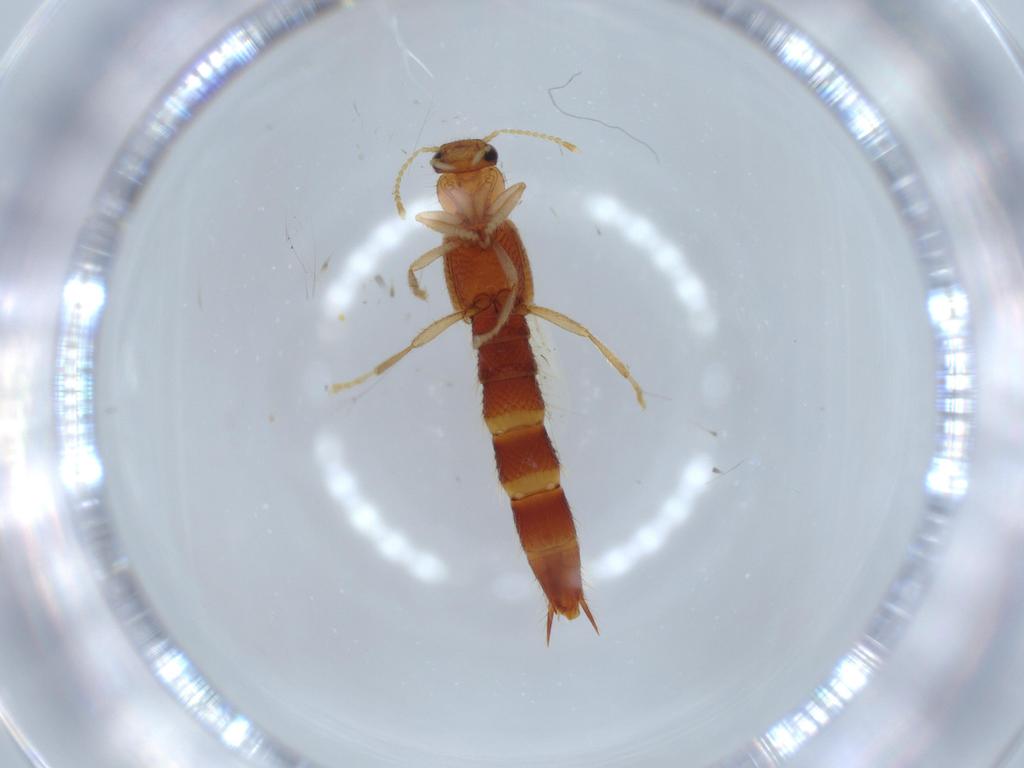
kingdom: Animalia
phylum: Arthropoda
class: Insecta
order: Coleoptera
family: Staphylinidae
